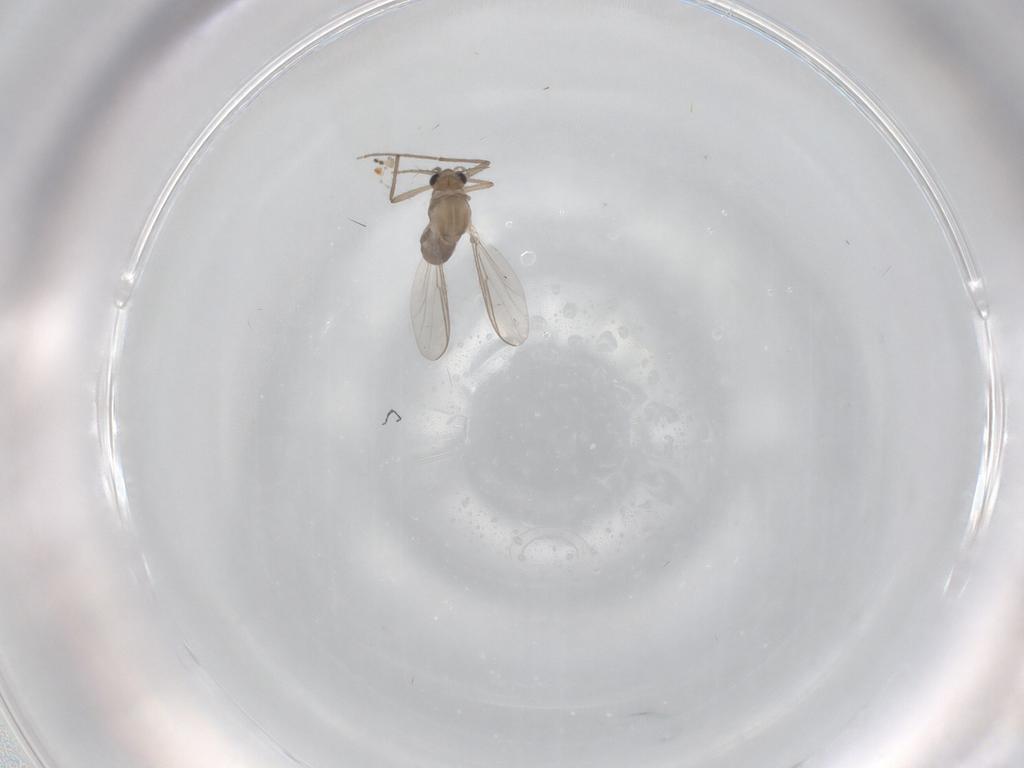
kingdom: Animalia
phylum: Arthropoda
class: Insecta
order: Diptera
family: Chironomidae
